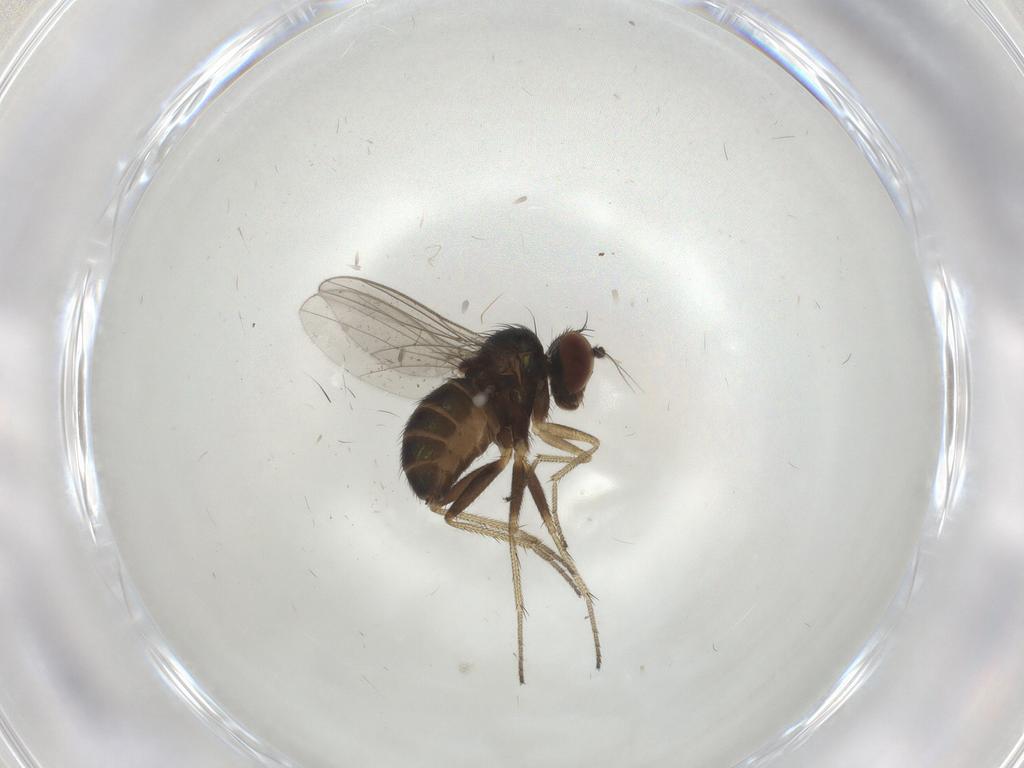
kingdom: Animalia
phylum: Arthropoda
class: Insecta
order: Diptera
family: Dolichopodidae
